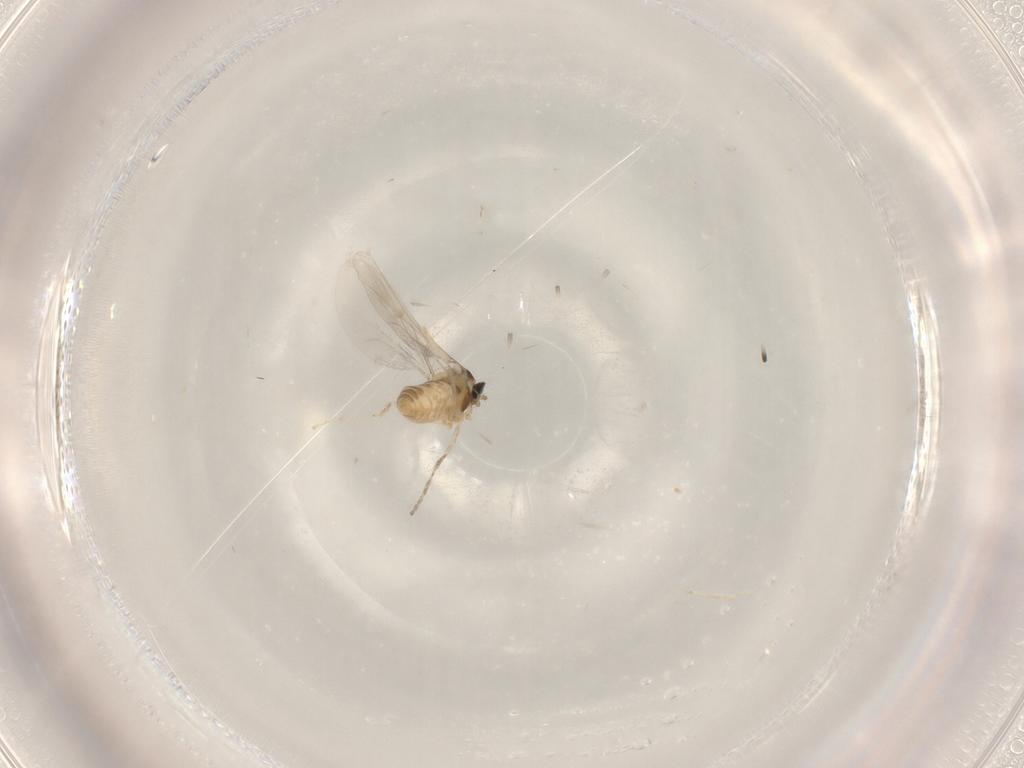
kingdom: Animalia
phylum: Arthropoda
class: Insecta
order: Diptera
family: Cecidomyiidae
